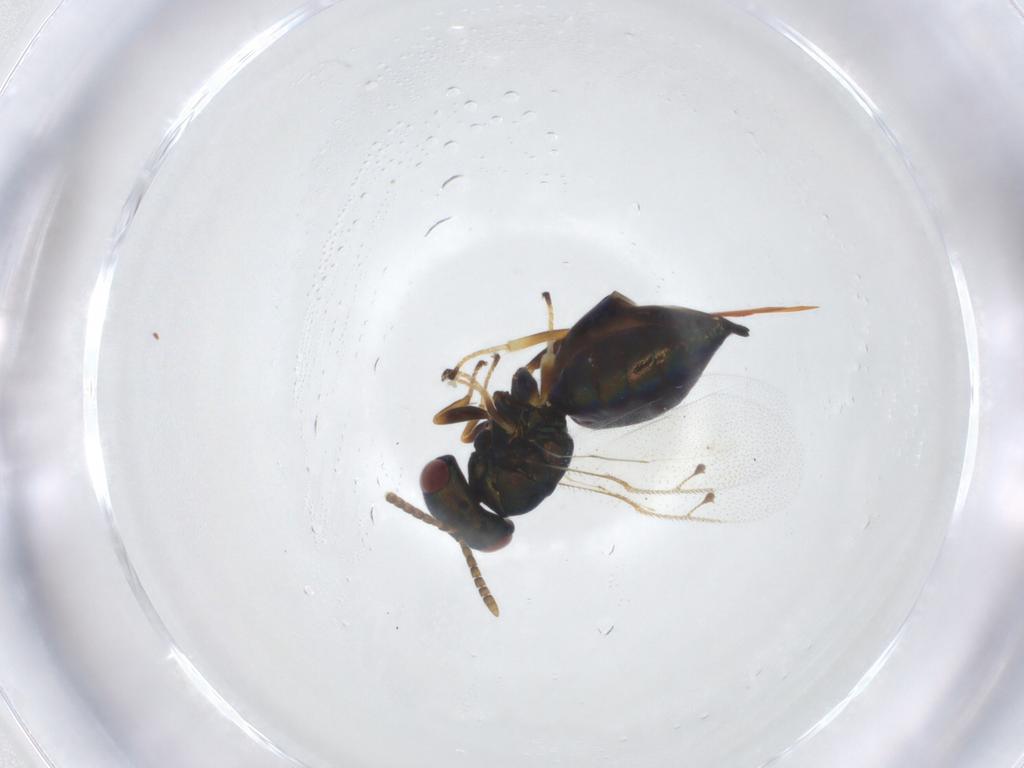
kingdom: Animalia
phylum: Arthropoda
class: Insecta
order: Hymenoptera
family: Pteromalidae
